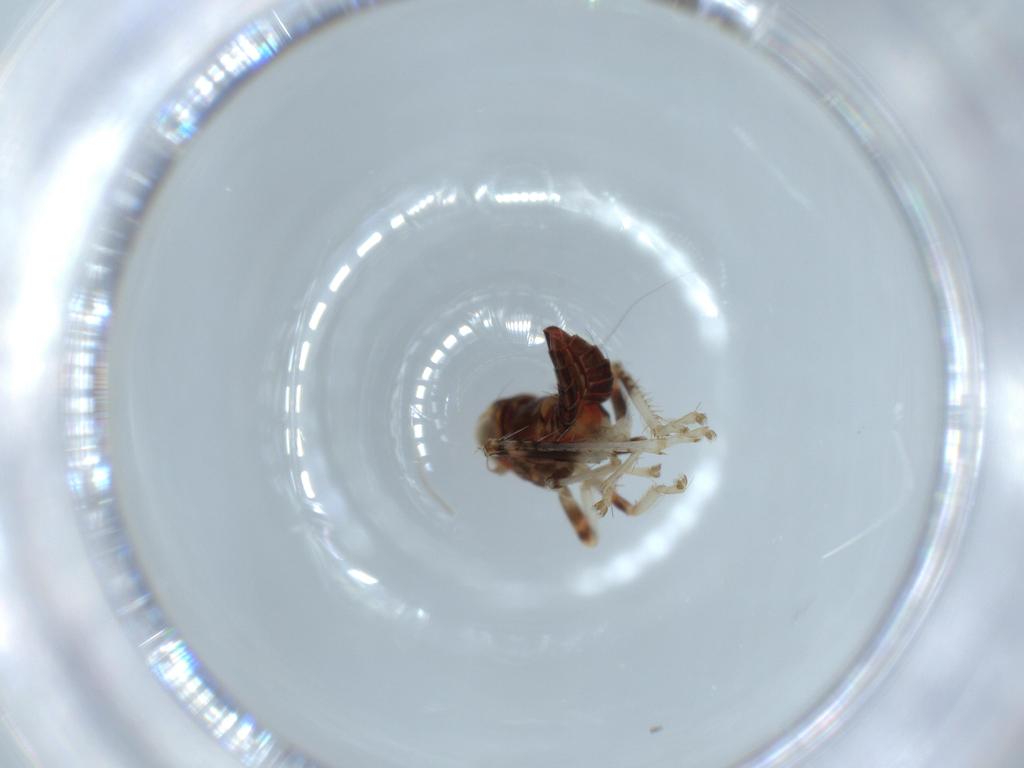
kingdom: Animalia
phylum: Arthropoda
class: Insecta
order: Hemiptera
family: Cicadellidae
